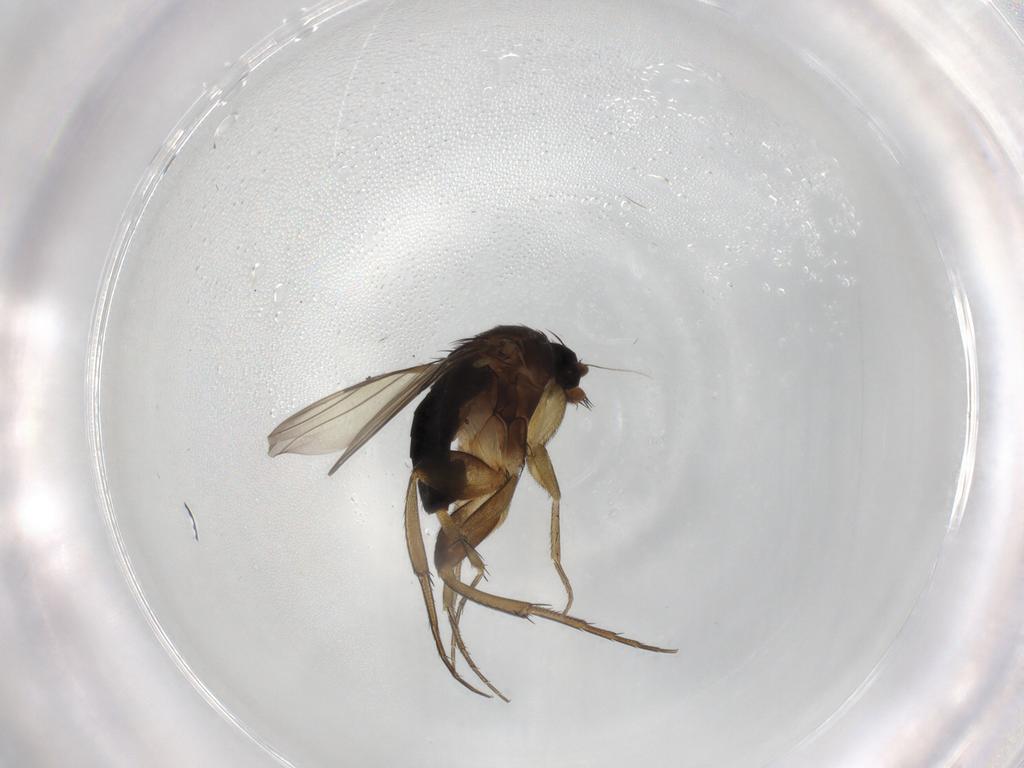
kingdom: Animalia
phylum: Arthropoda
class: Insecta
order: Diptera
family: Phoridae
